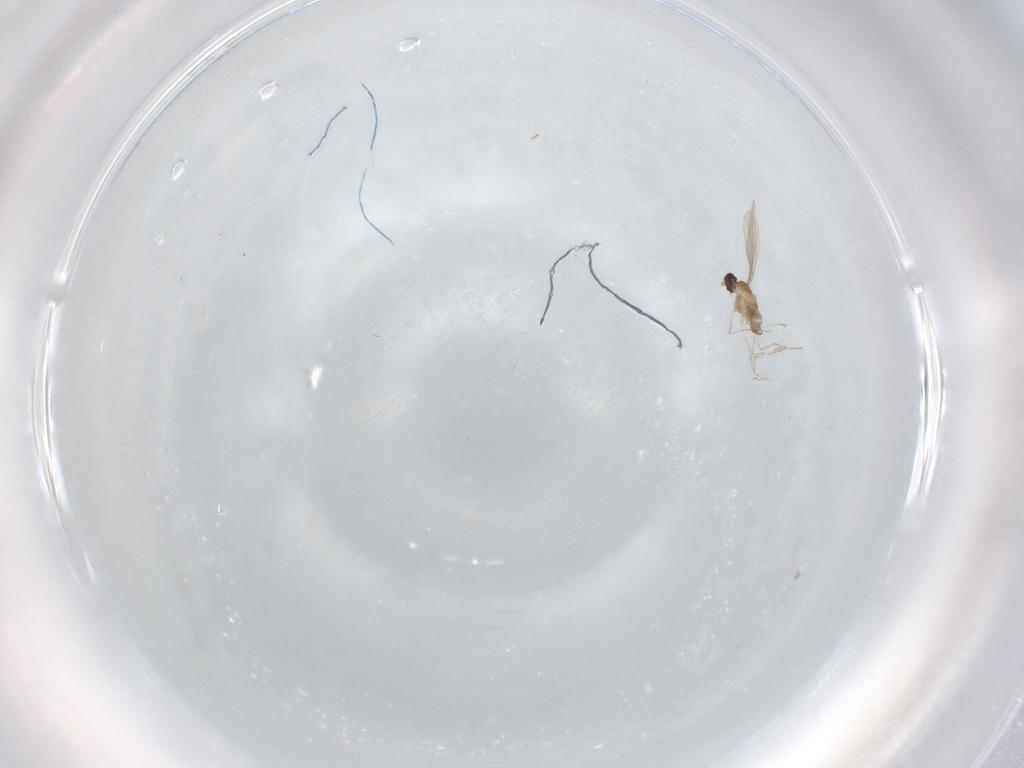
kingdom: Animalia
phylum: Arthropoda
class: Insecta
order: Diptera
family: Cecidomyiidae
